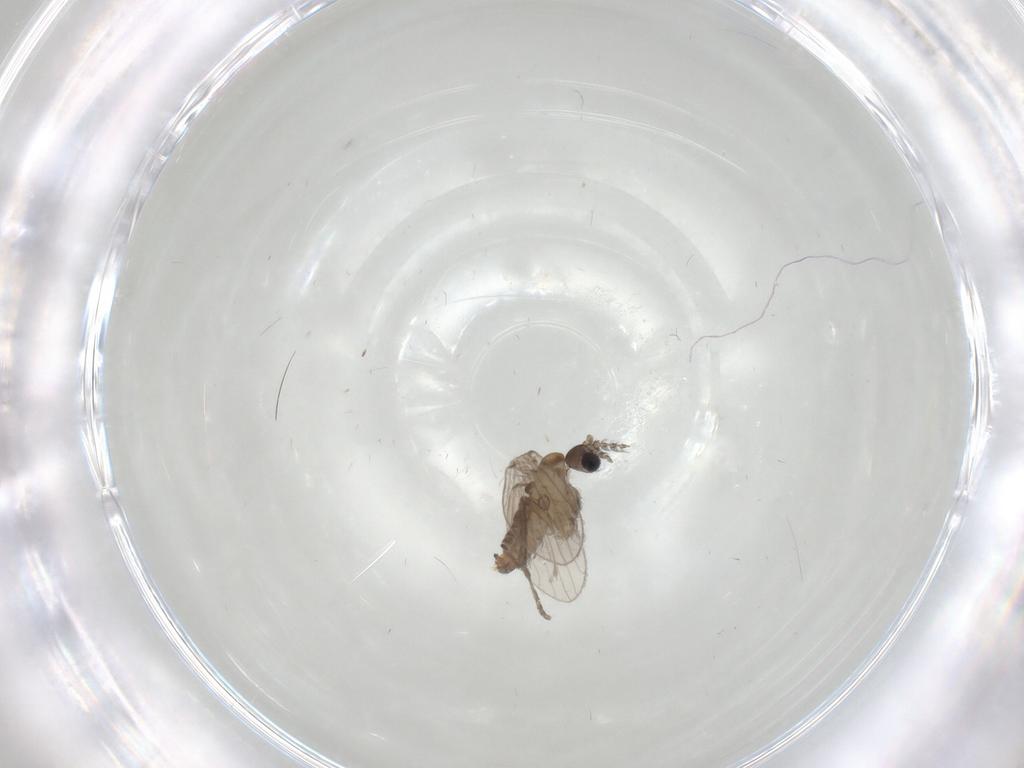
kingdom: Animalia
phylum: Arthropoda
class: Insecta
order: Diptera
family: Psychodidae
